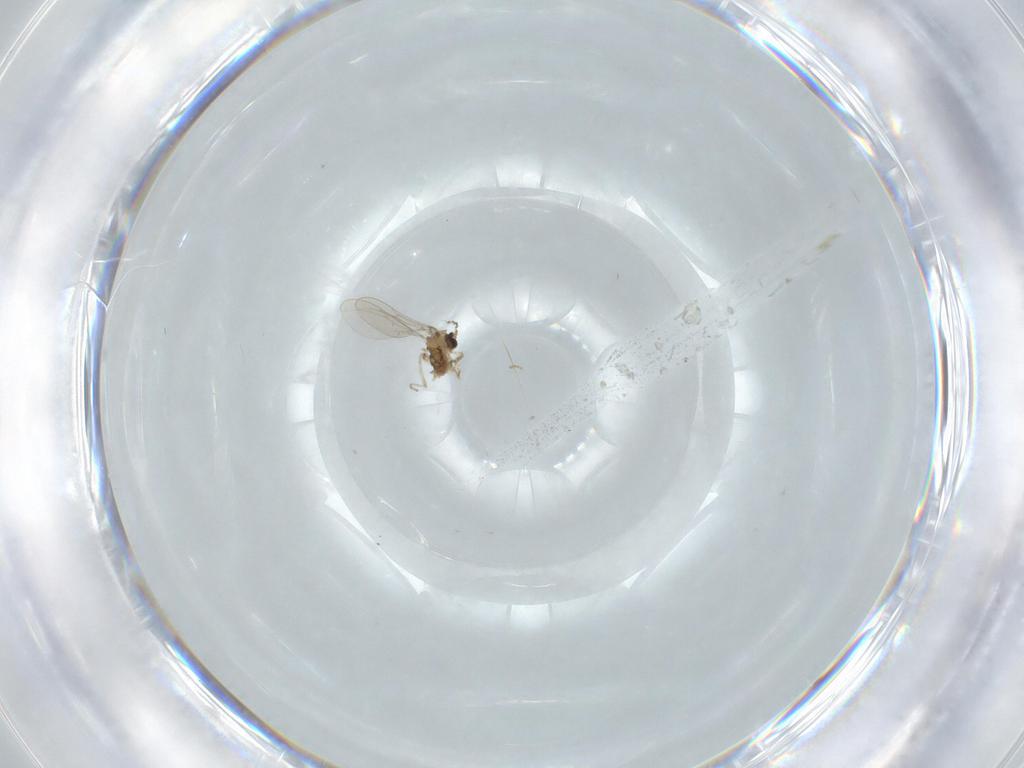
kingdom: Animalia
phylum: Arthropoda
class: Insecta
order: Diptera
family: Cecidomyiidae
